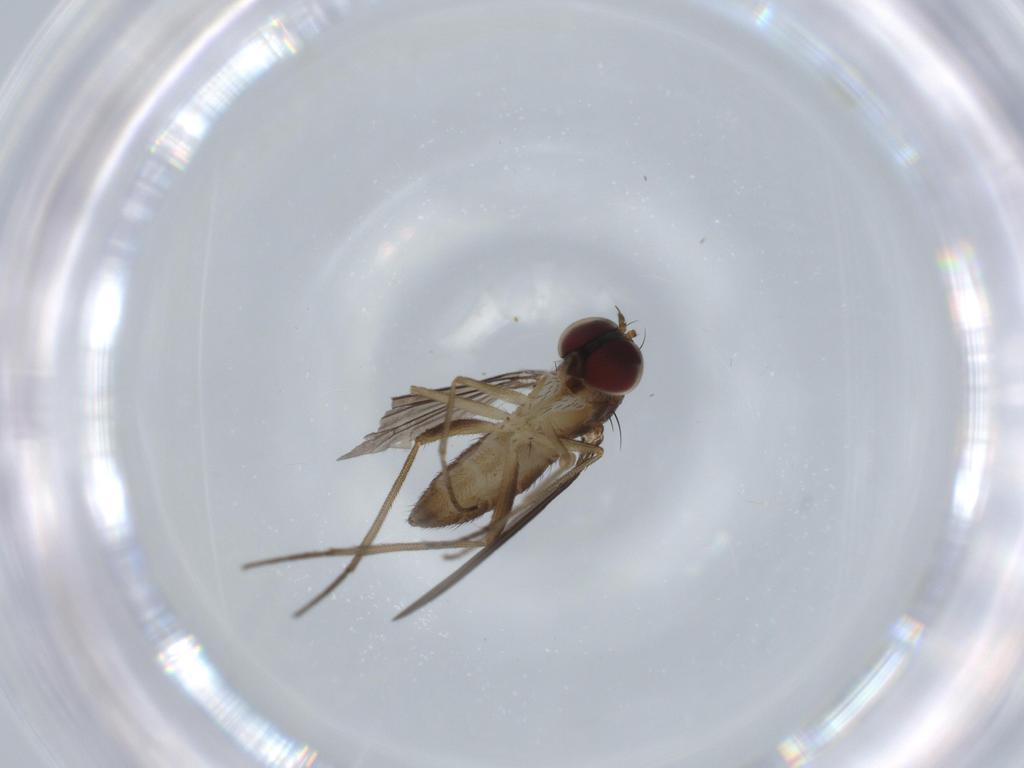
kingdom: Animalia
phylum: Arthropoda
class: Insecta
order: Diptera
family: Dolichopodidae
